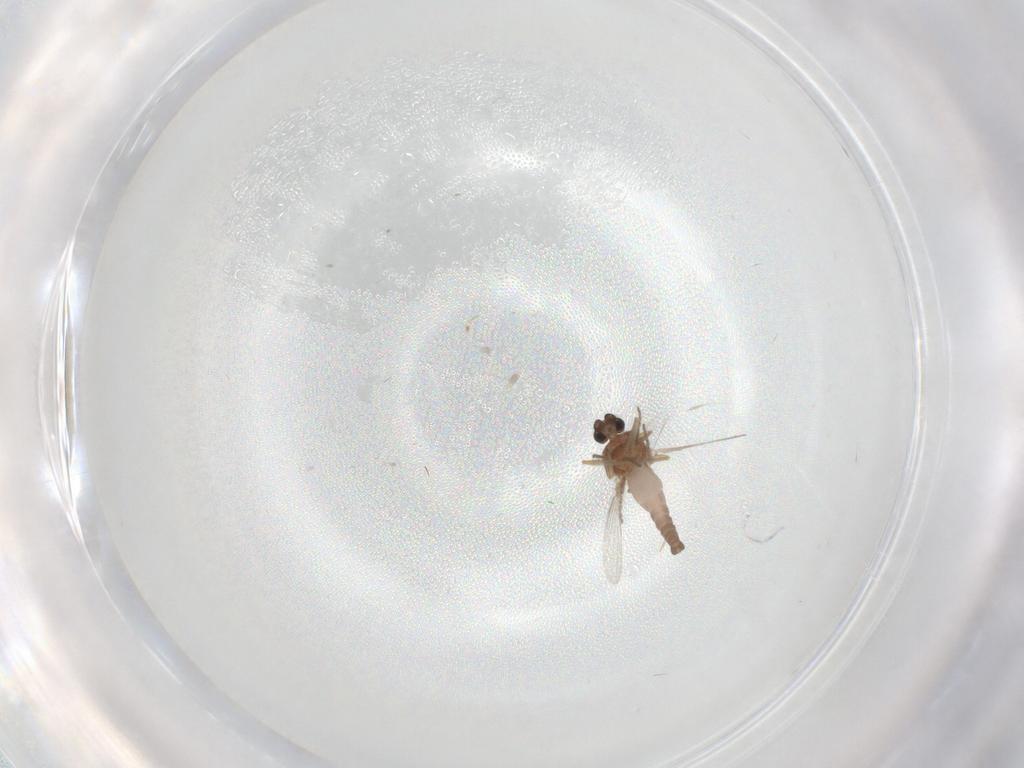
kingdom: Animalia
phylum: Arthropoda
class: Insecta
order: Diptera
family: Ceratopogonidae
